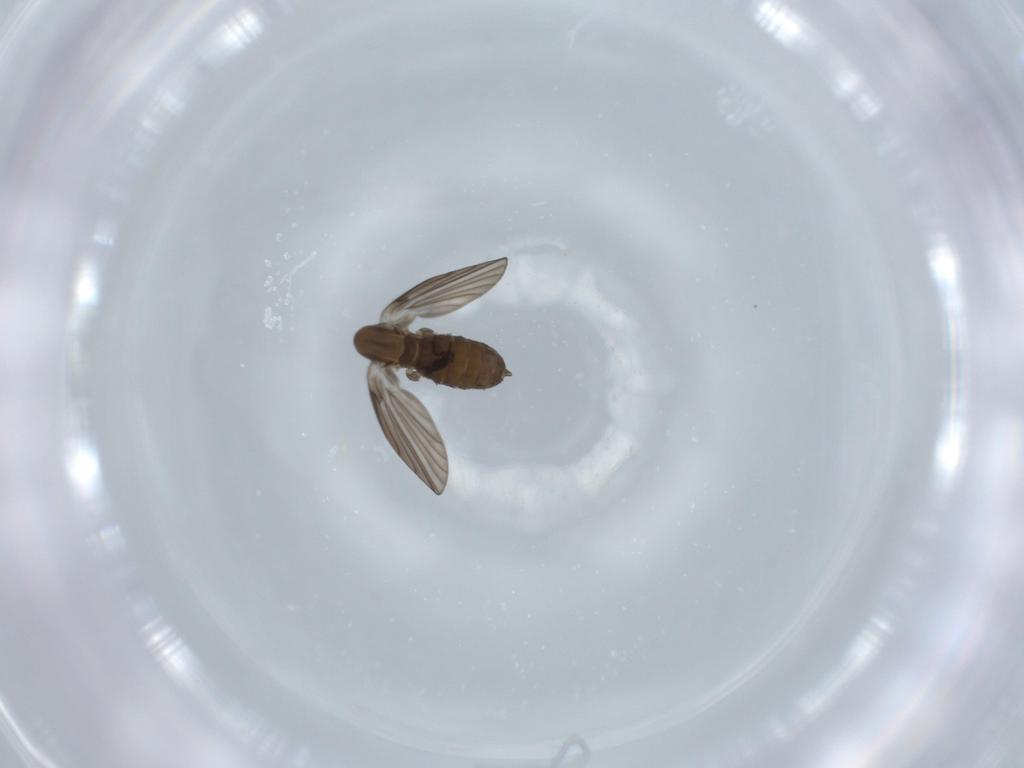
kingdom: Animalia
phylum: Arthropoda
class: Insecta
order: Diptera
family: Psychodidae
